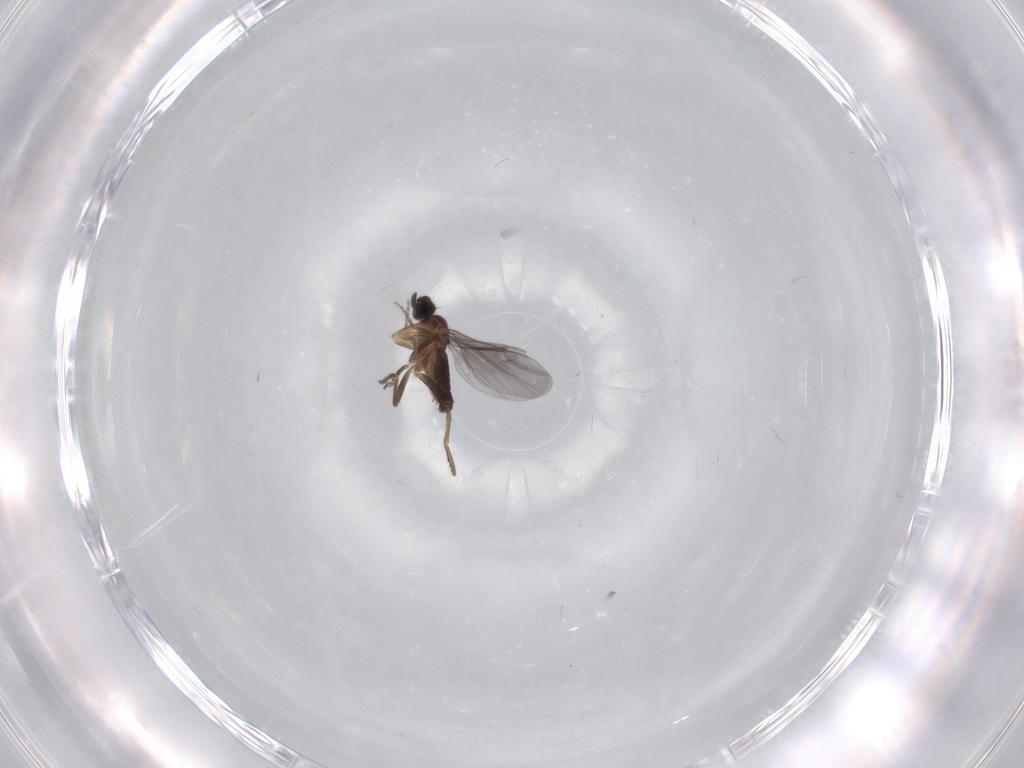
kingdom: Animalia
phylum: Arthropoda
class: Insecta
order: Diptera
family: Phoridae
